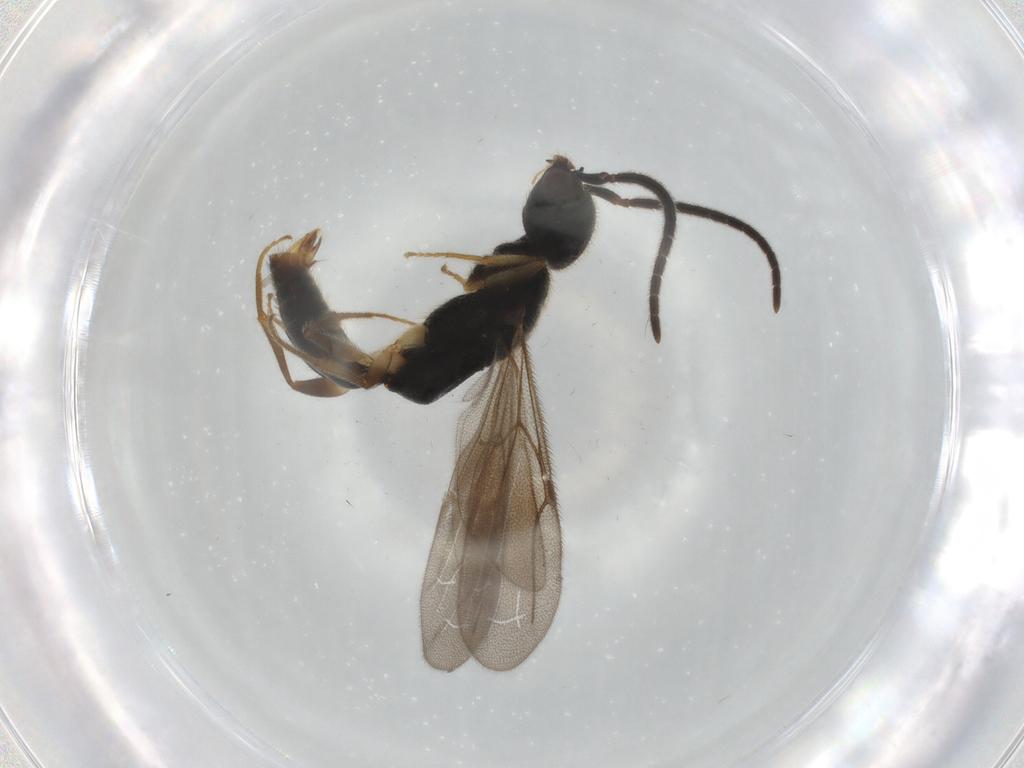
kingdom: Animalia
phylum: Arthropoda
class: Insecta
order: Hymenoptera
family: Bethylidae
